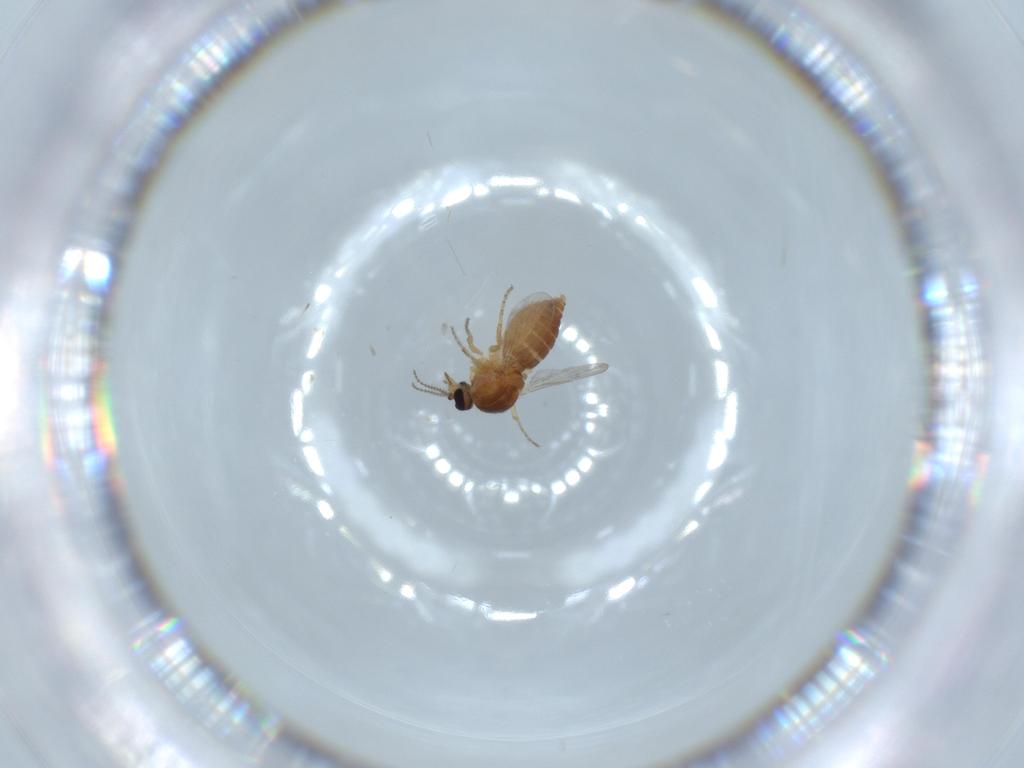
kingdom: Animalia
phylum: Arthropoda
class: Insecta
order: Diptera
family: Ceratopogonidae
